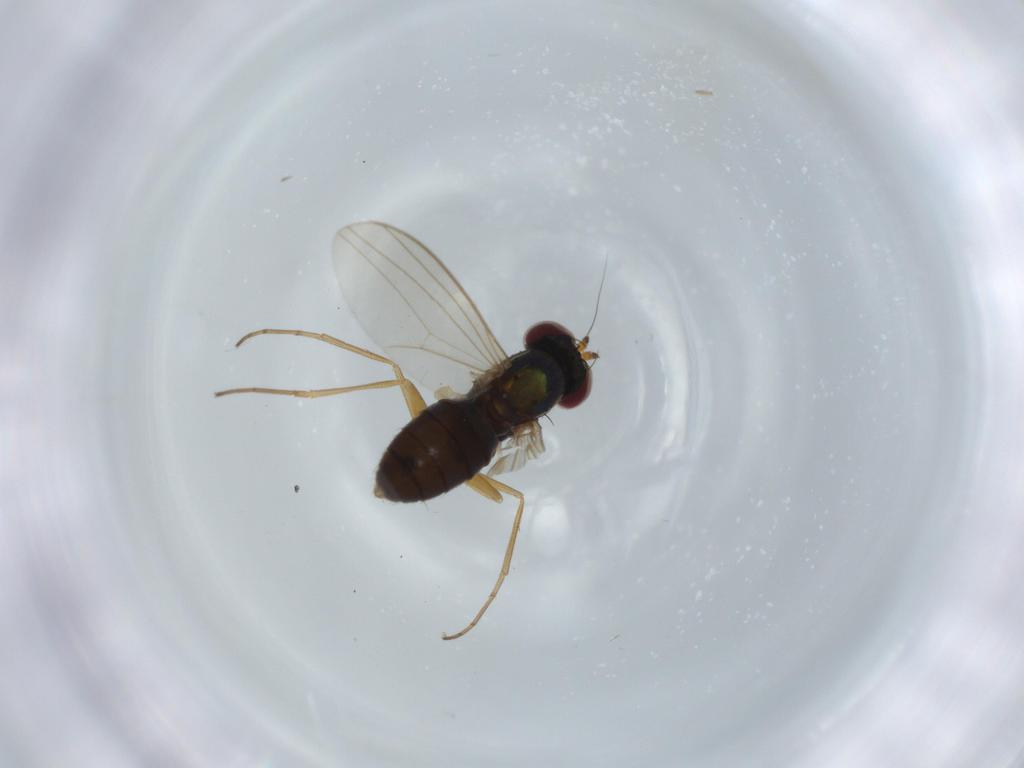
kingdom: Animalia
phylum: Arthropoda
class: Insecta
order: Diptera
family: Dolichopodidae
